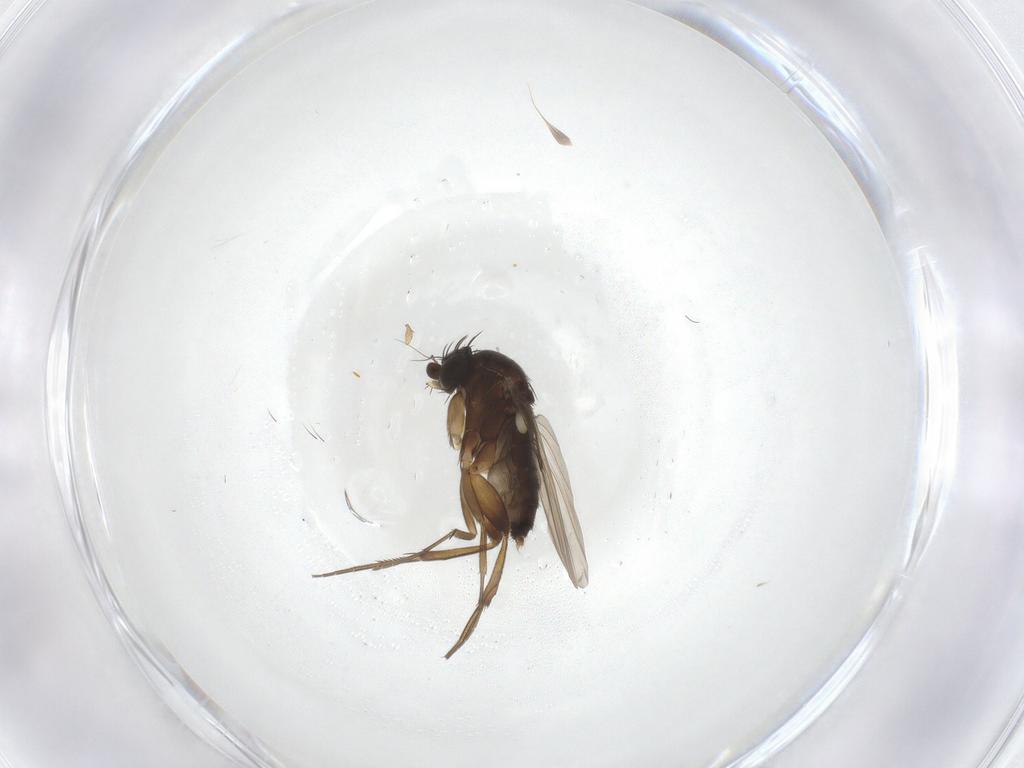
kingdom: Animalia
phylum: Arthropoda
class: Insecta
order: Diptera
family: Phoridae
